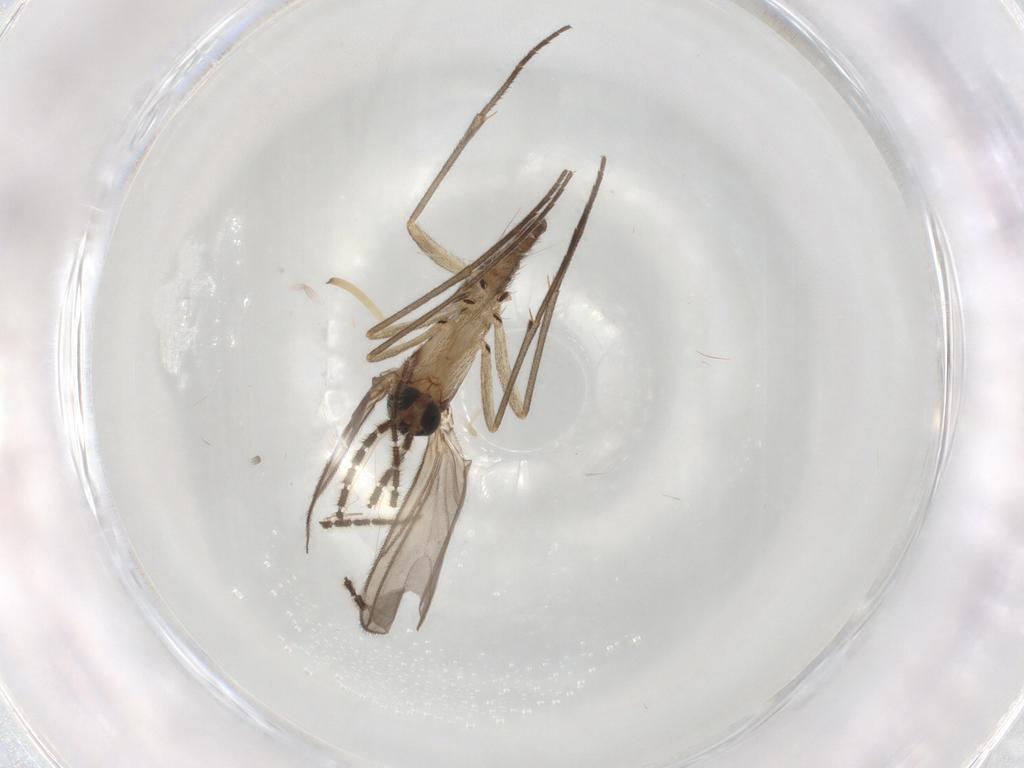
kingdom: Animalia
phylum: Arthropoda
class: Insecta
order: Diptera
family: Sciaridae
